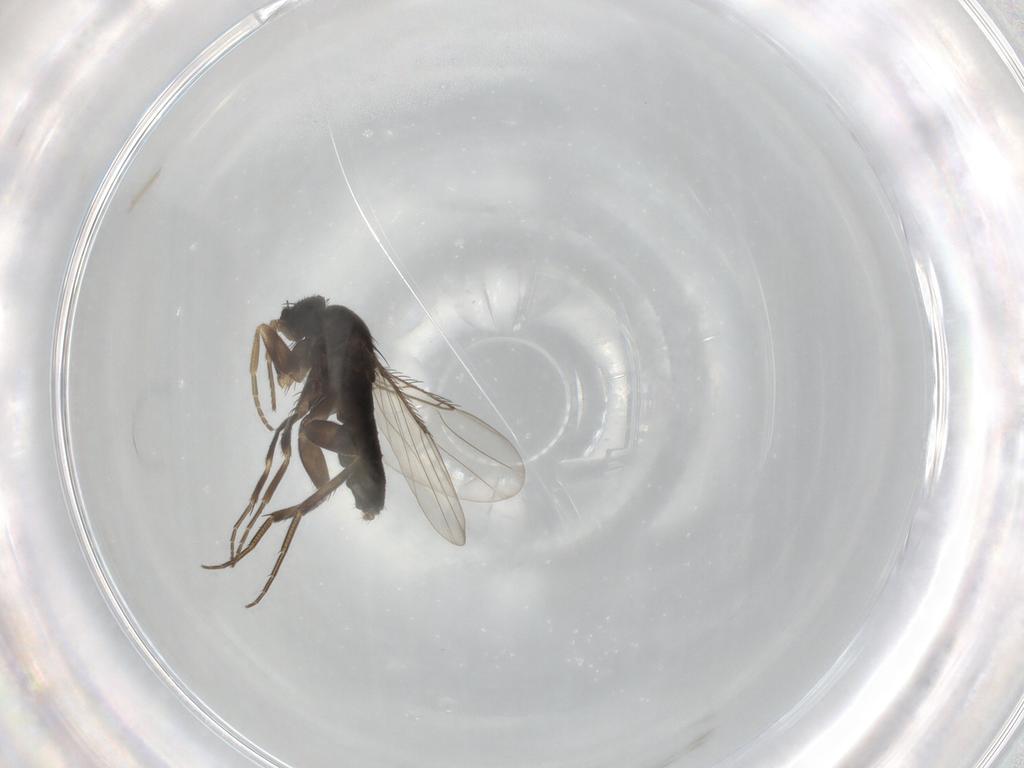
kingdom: Animalia
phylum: Arthropoda
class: Insecta
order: Diptera
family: Phoridae
